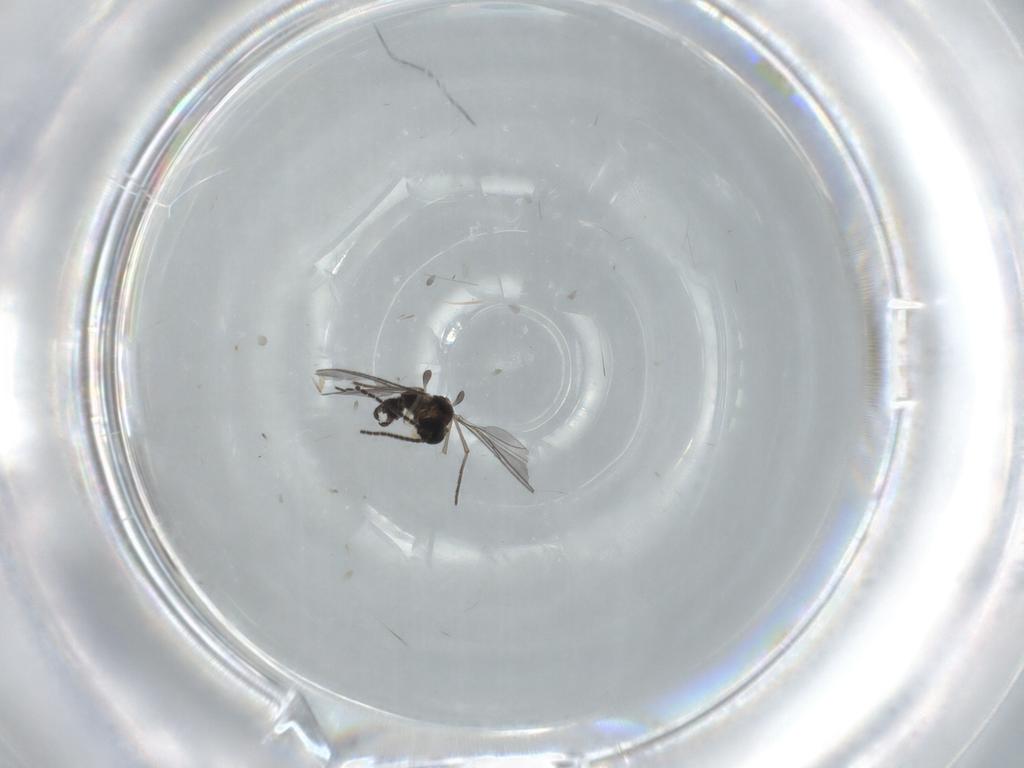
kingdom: Animalia
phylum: Arthropoda
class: Insecta
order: Diptera
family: Sciaridae
